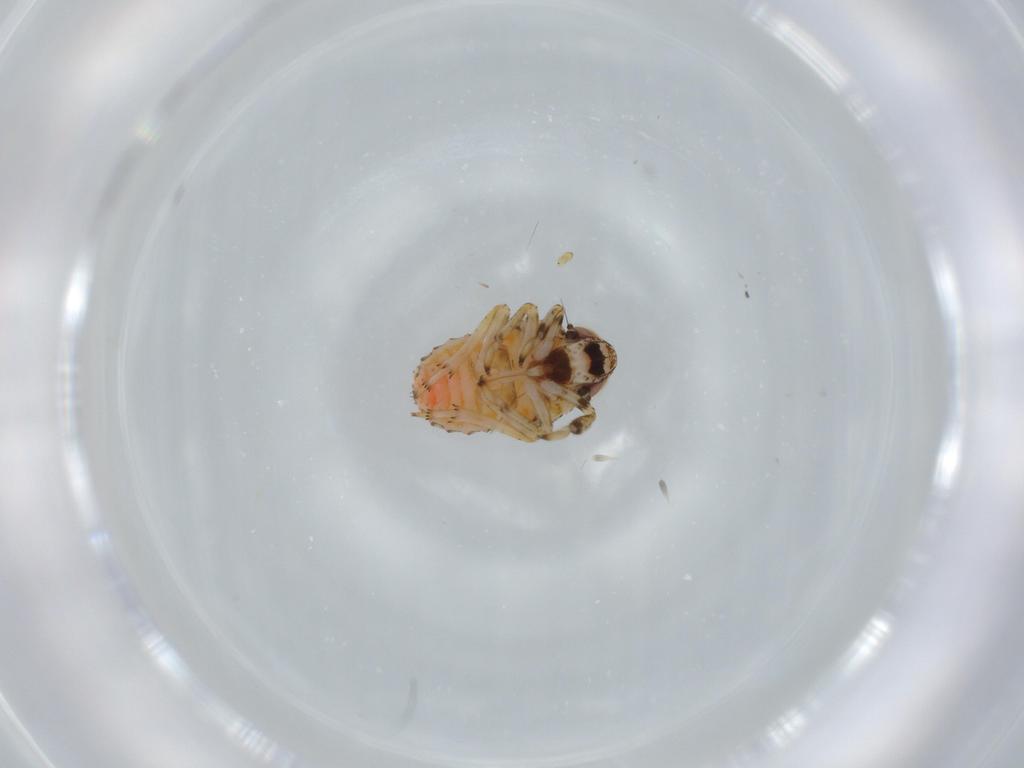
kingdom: Animalia
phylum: Arthropoda
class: Insecta
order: Hemiptera
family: Issidae
